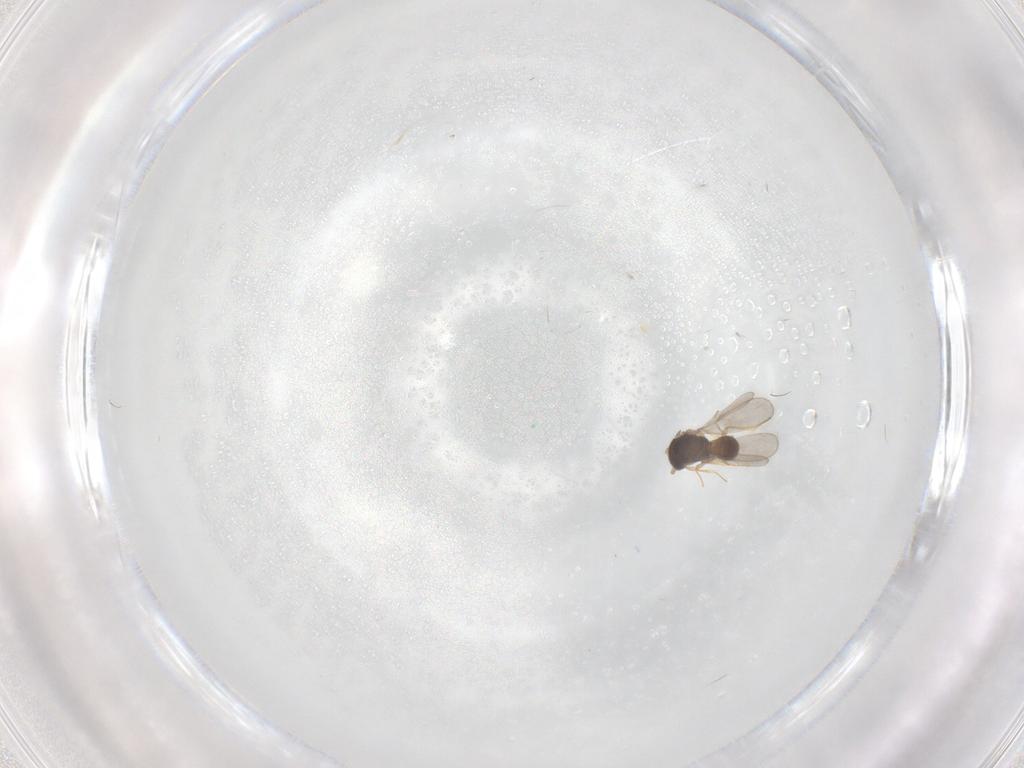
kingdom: Animalia
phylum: Arthropoda
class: Insecta
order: Hymenoptera
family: Scelionidae
